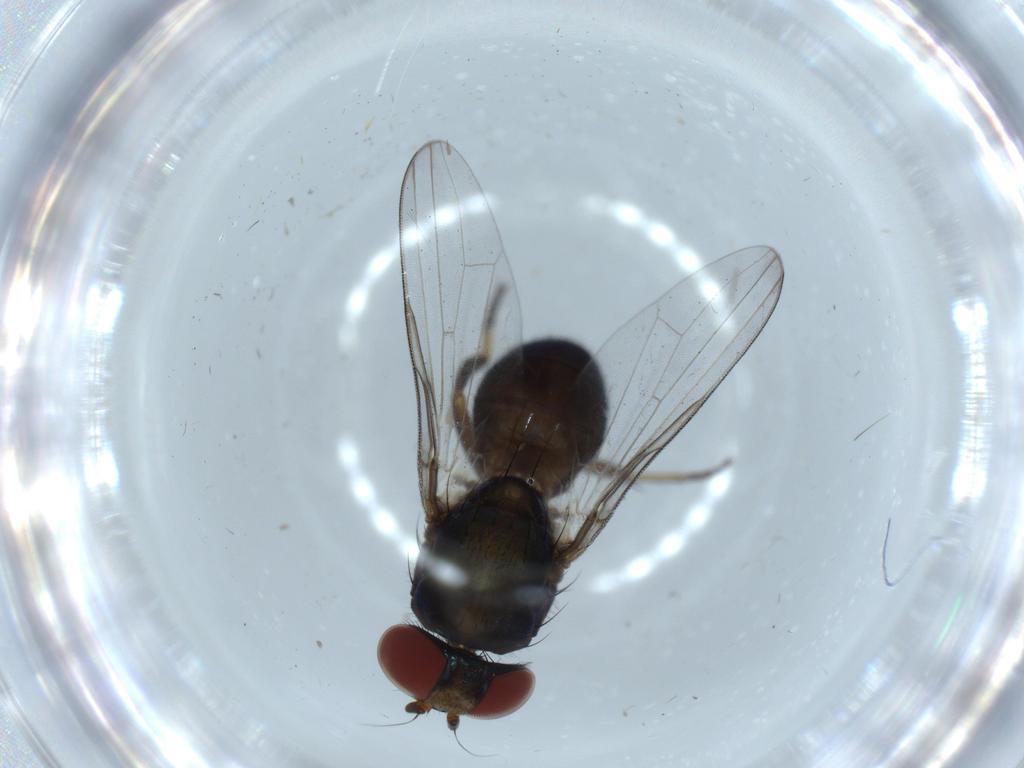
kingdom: Animalia
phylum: Arthropoda
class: Insecta
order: Diptera
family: Ulidiidae
